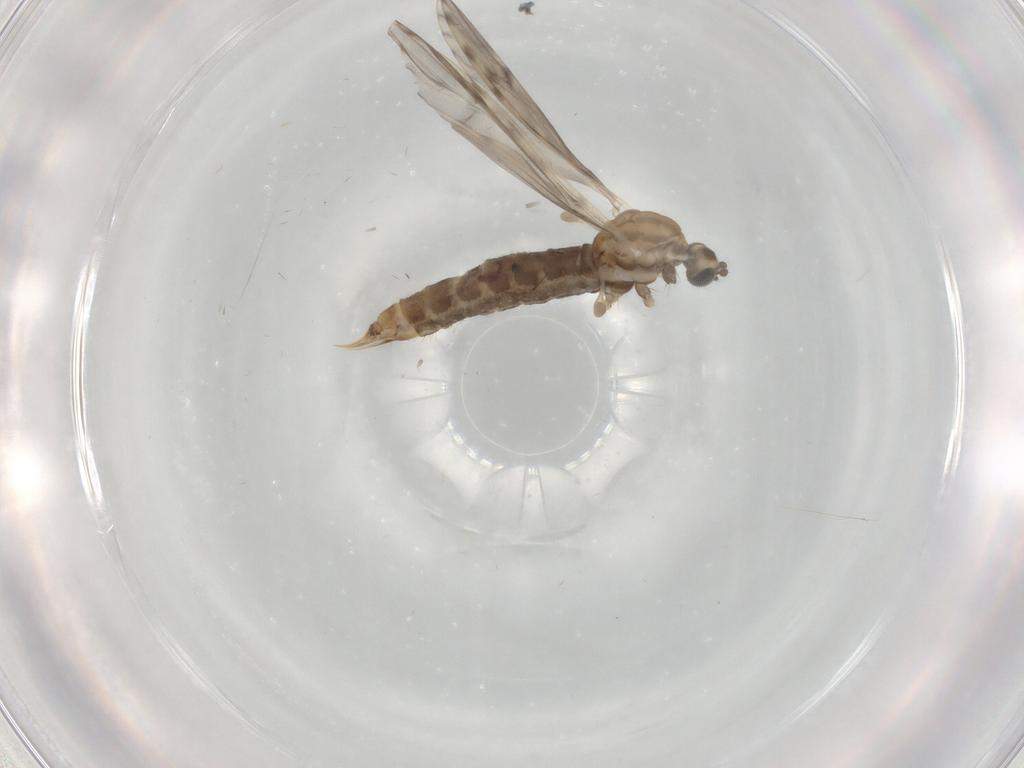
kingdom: Animalia
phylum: Arthropoda
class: Insecta
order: Diptera
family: Limoniidae
